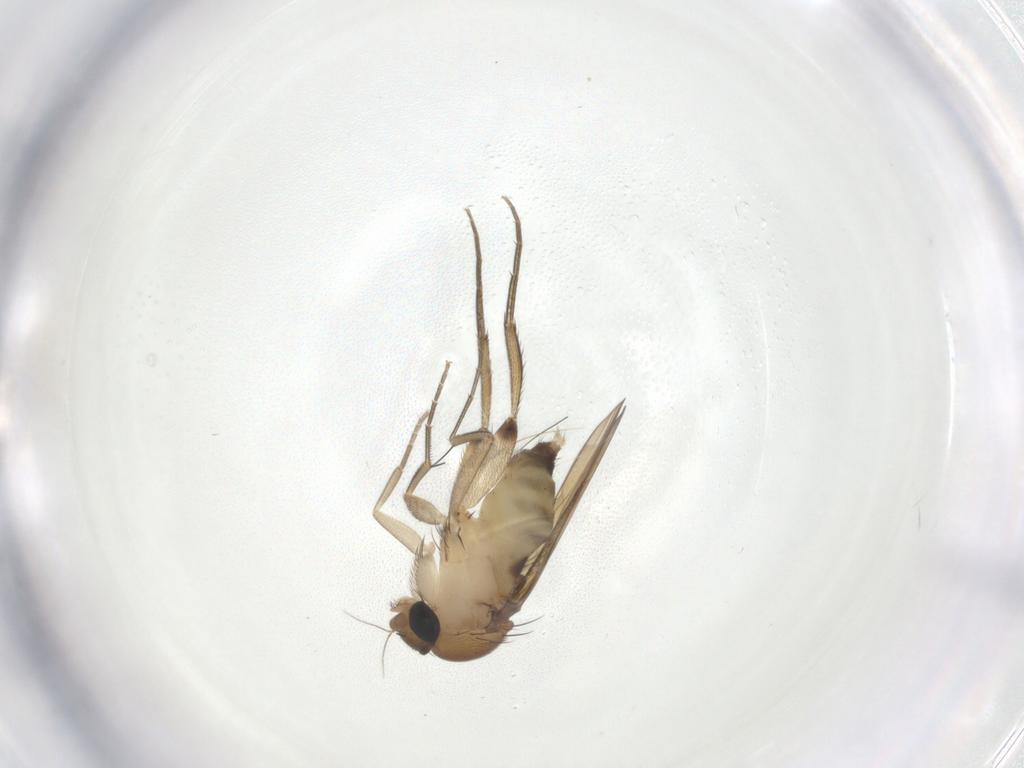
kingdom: Animalia
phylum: Arthropoda
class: Insecta
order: Diptera
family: Phoridae
